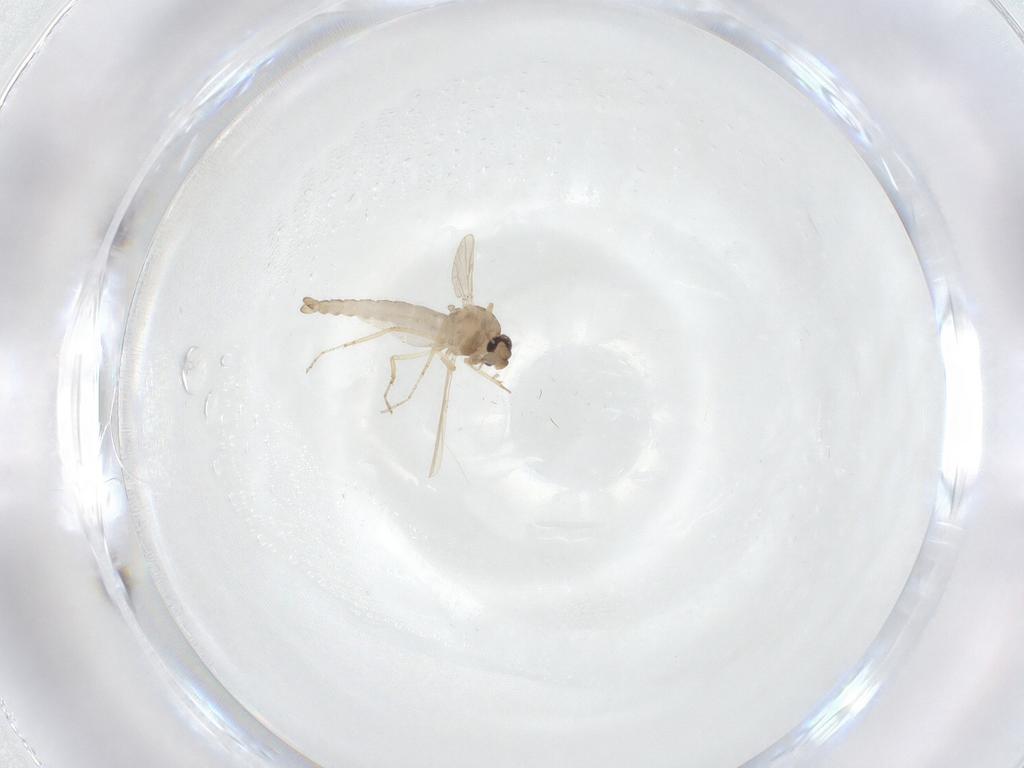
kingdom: Animalia
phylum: Arthropoda
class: Insecta
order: Diptera
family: Ceratopogonidae
